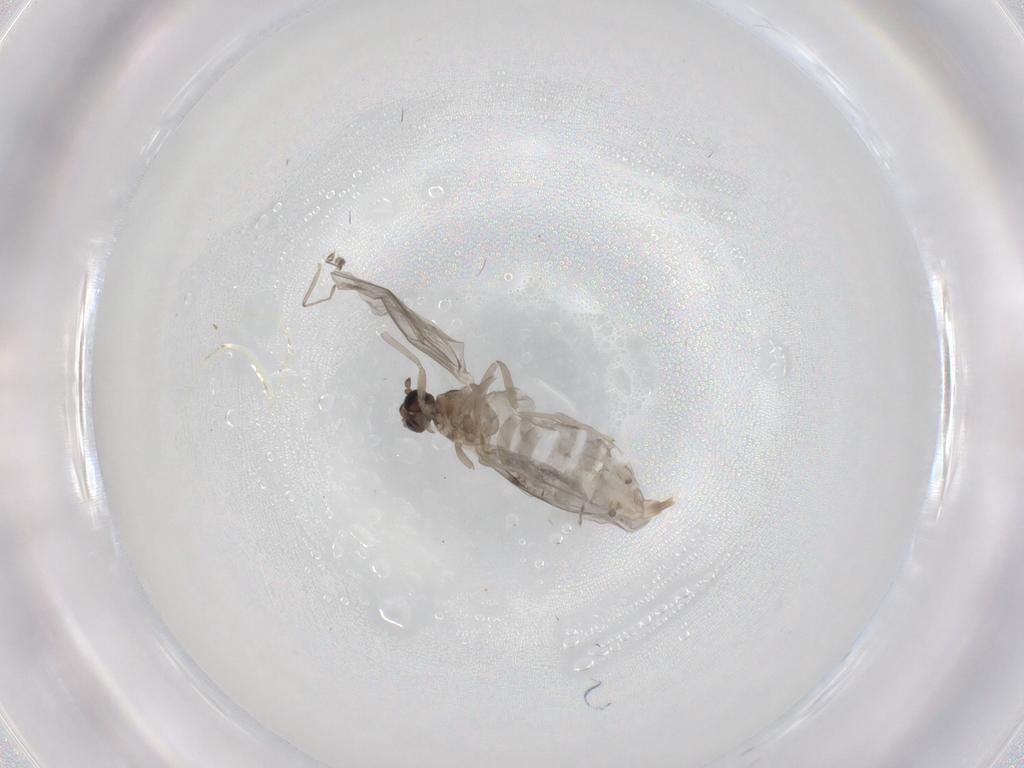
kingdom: Animalia
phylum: Arthropoda
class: Insecta
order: Diptera
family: Cecidomyiidae
